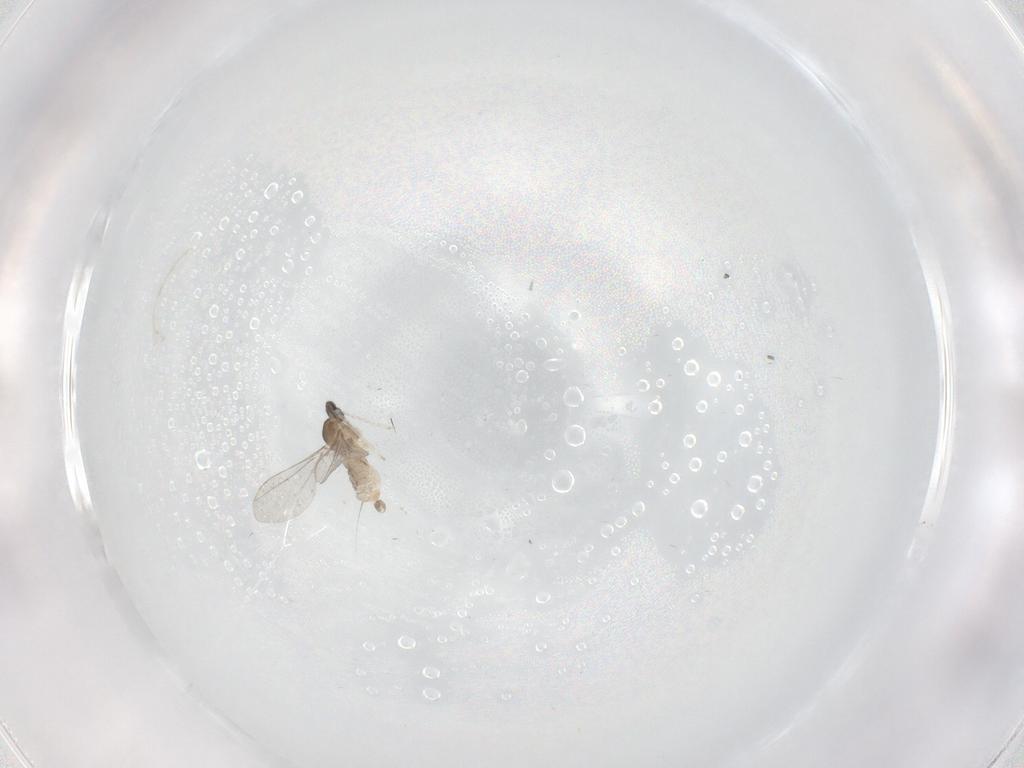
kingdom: Animalia
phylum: Arthropoda
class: Insecta
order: Diptera
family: Cecidomyiidae
